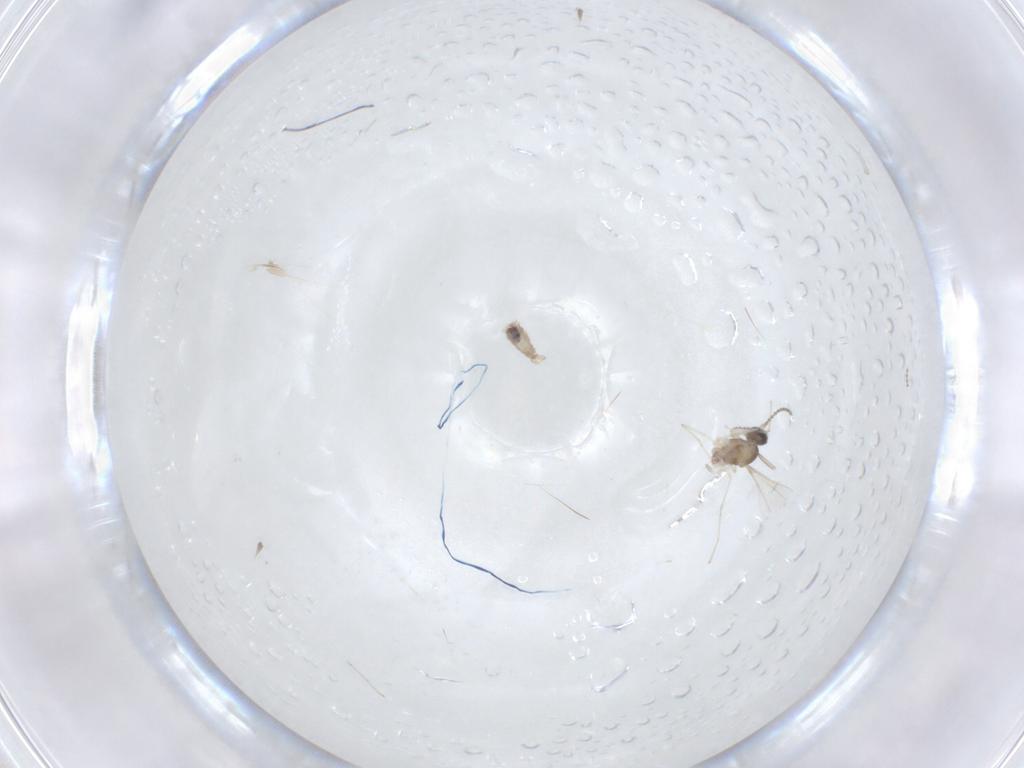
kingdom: Animalia
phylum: Arthropoda
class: Insecta
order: Diptera
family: Cecidomyiidae
